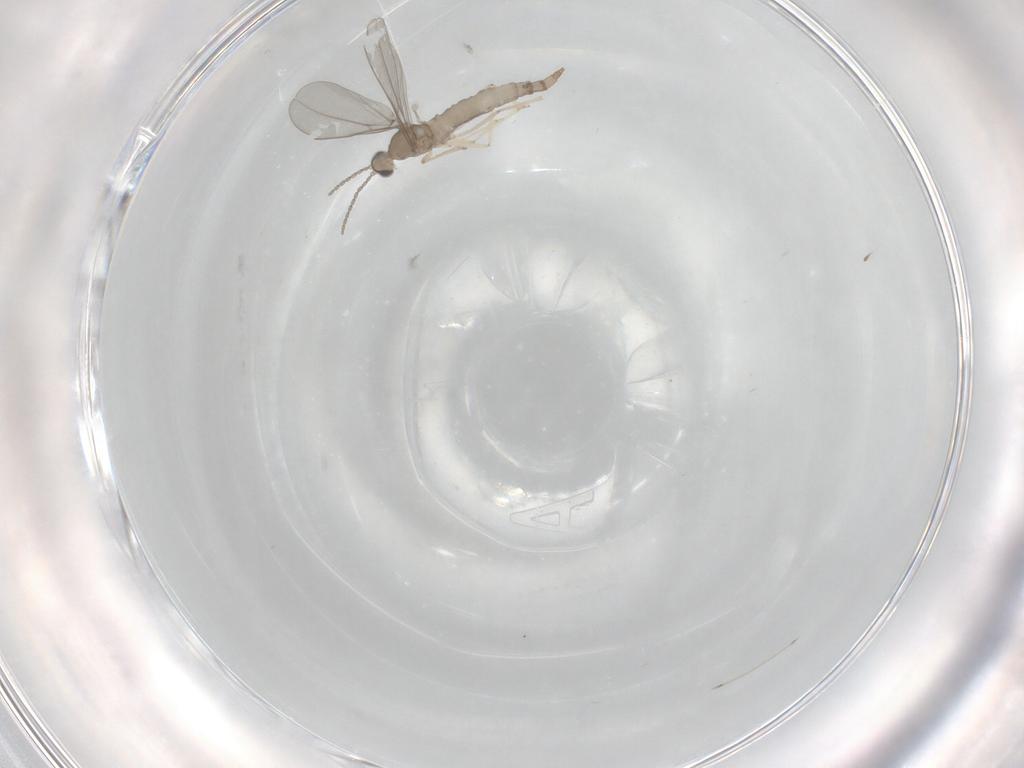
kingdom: Animalia
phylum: Arthropoda
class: Insecta
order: Diptera
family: Cecidomyiidae
